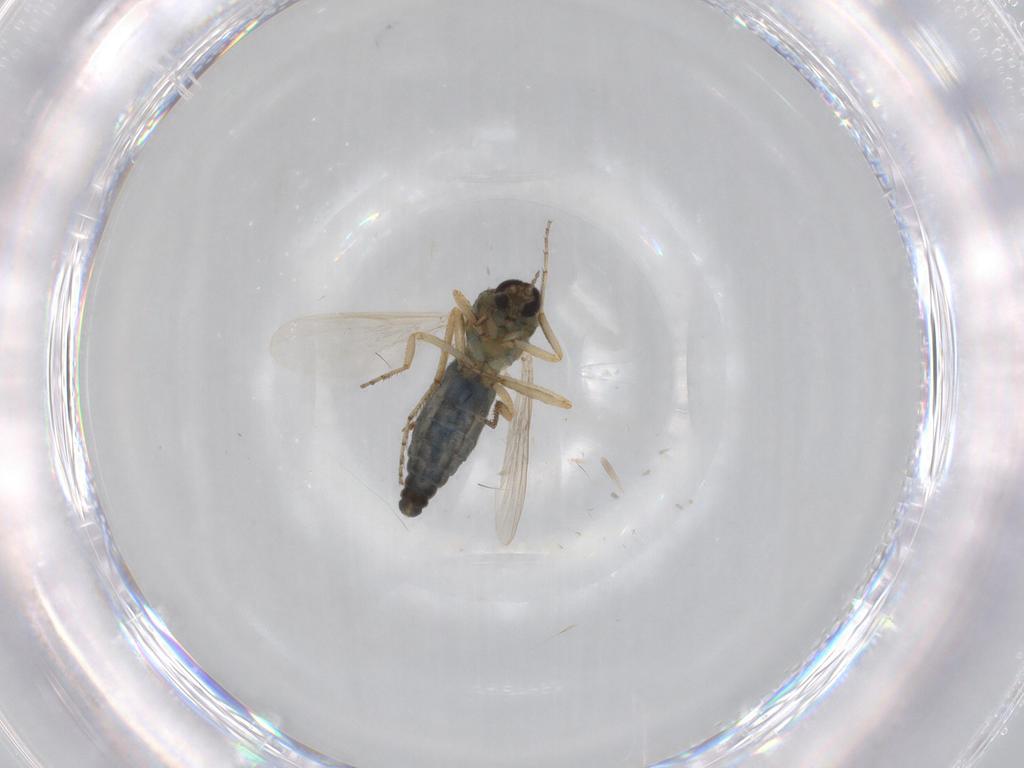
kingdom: Animalia
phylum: Arthropoda
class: Insecta
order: Diptera
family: Ceratopogonidae
